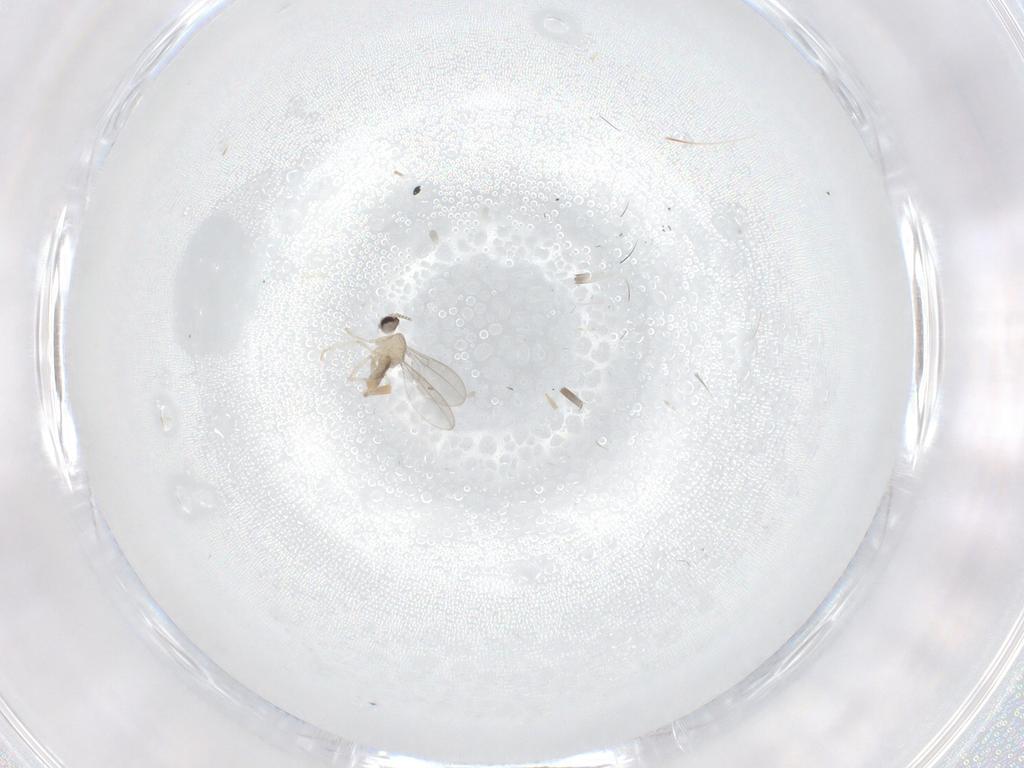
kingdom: Animalia
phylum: Arthropoda
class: Insecta
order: Diptera
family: Cecidomyiidae
